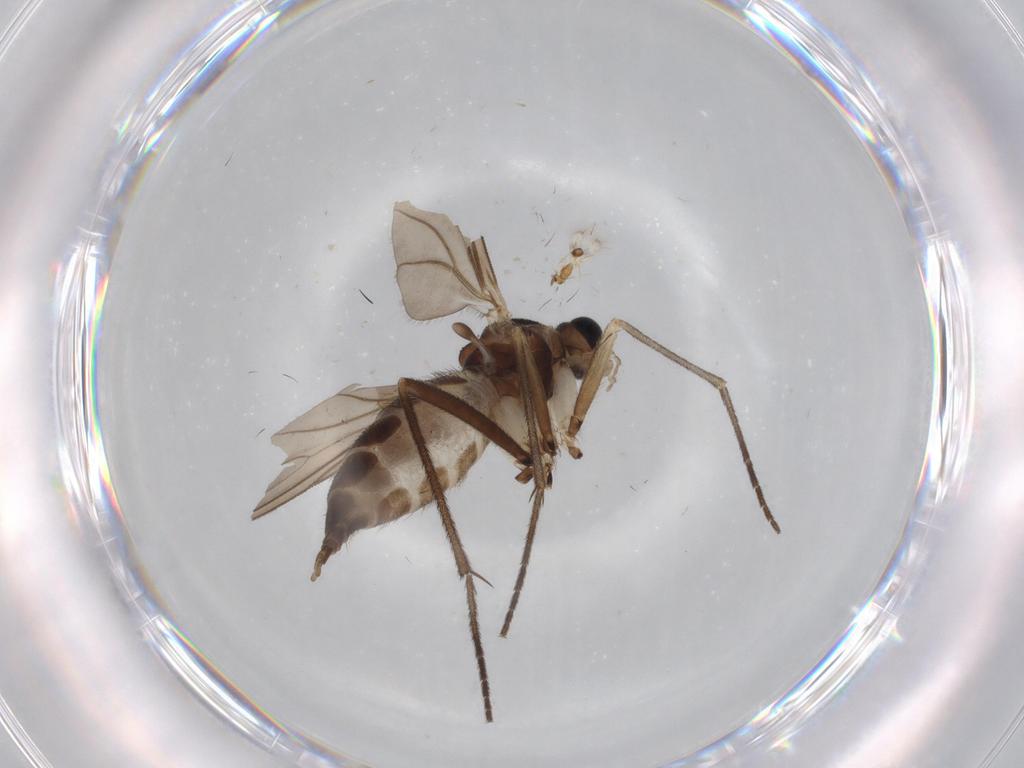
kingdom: Animalia
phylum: Arthropoda
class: Insecta
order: Diptera
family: Sciaridae
